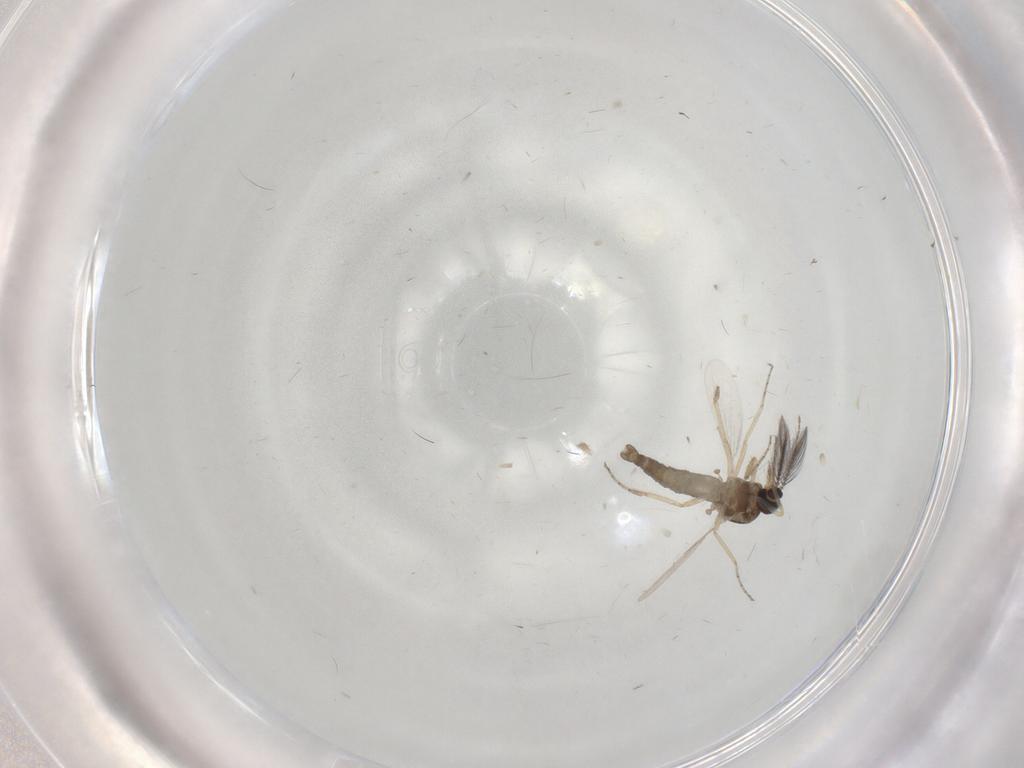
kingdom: Animalia
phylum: Arthropoda
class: Insecta
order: Diptera
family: Ceratopogonidae
